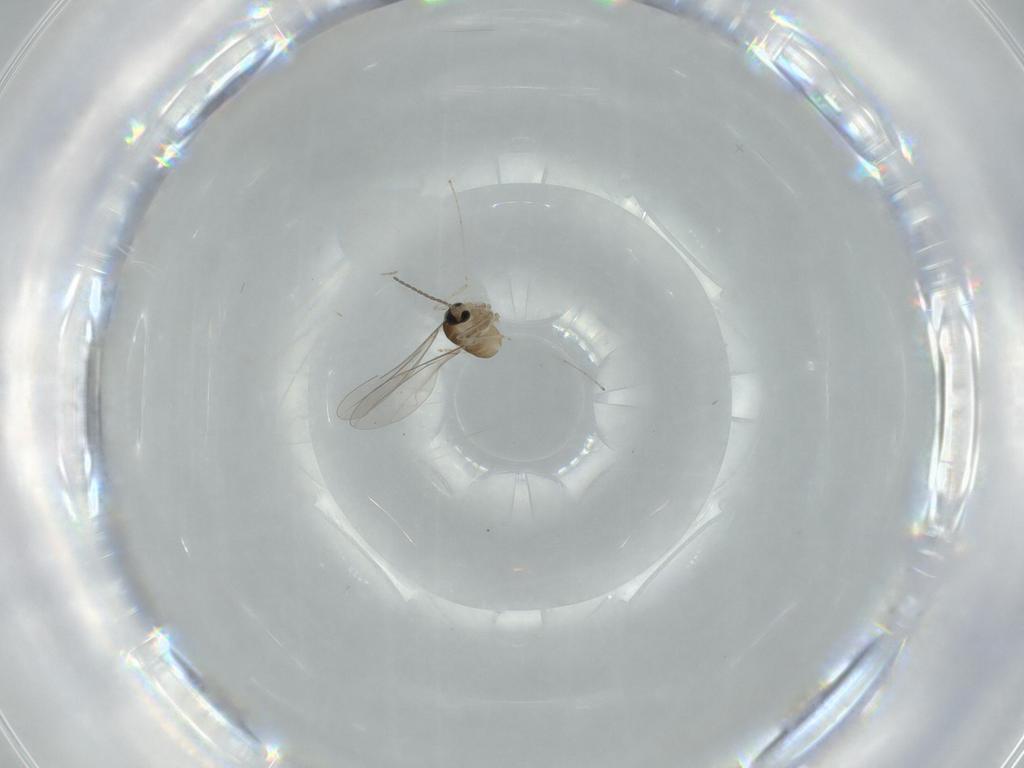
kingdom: Animalia
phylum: Arthropoda
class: Insecta
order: Diptera
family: Cecidomyiidae
